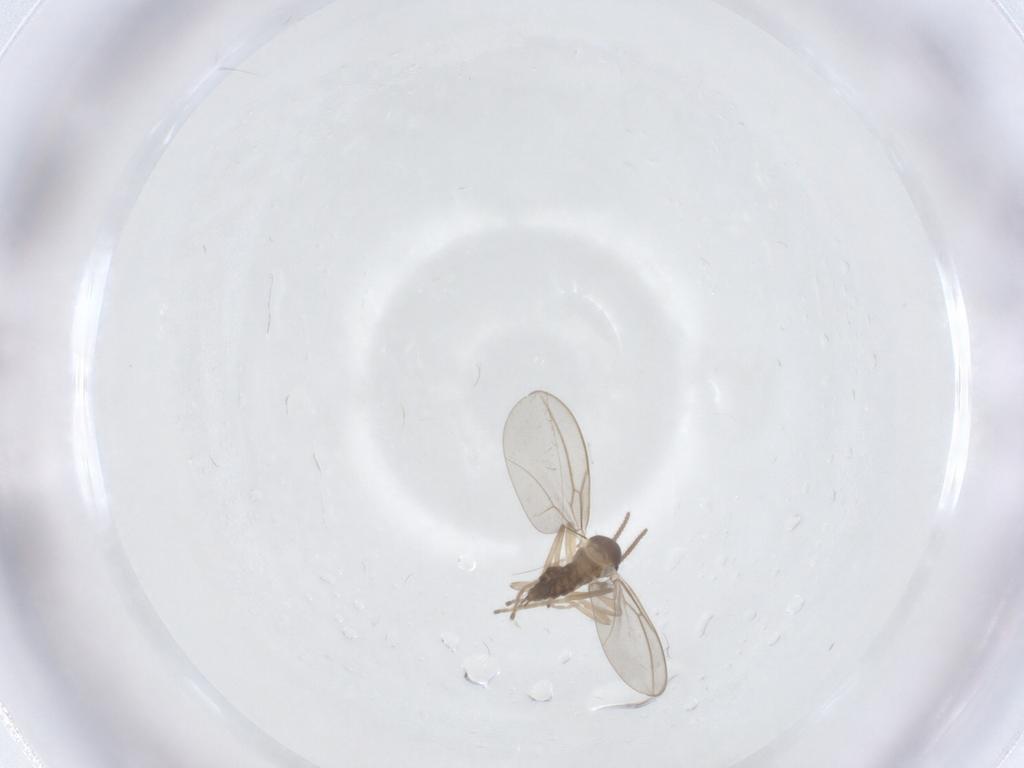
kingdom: Animalia
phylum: Arthropoda
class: Insecta
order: Diptera
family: Cecidomyiidae
